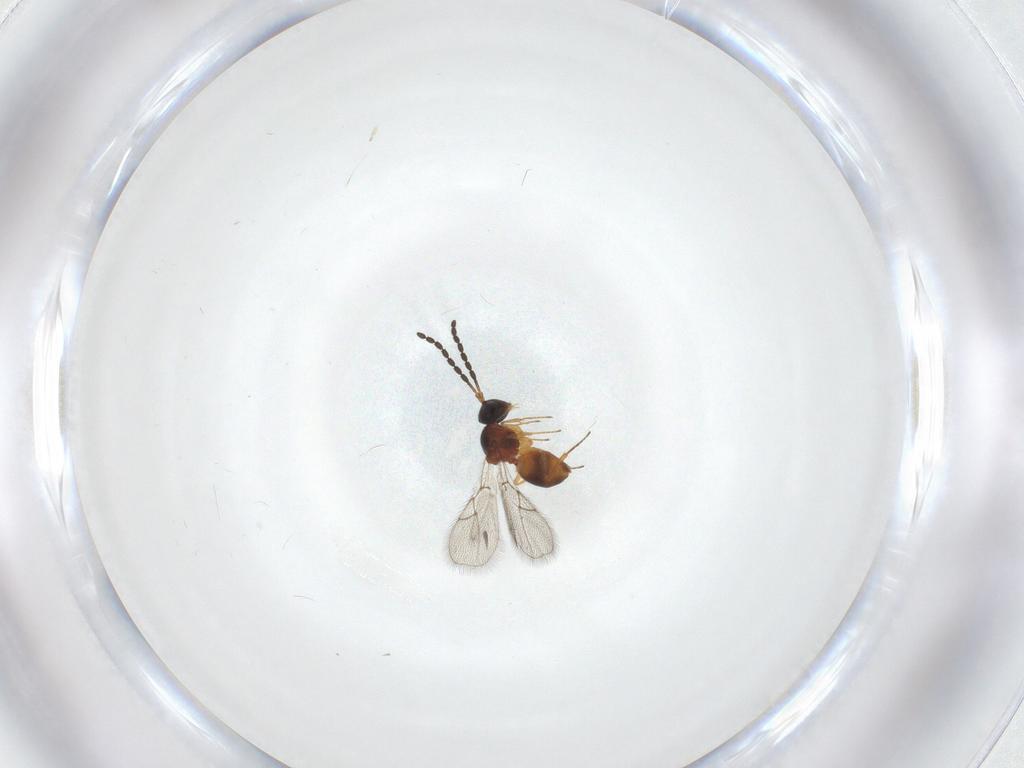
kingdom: Animalia
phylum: Arthropoda
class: Insecta
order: Hymenoptera
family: Figitidae
